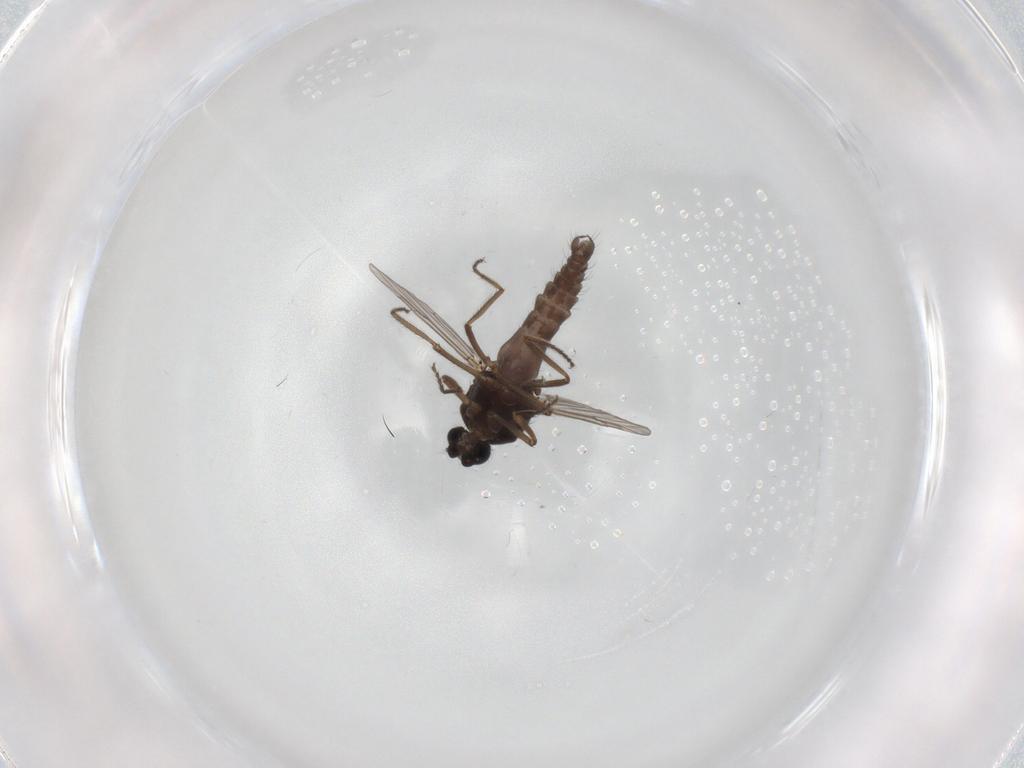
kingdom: Animalia
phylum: Arthropoda
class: Insecta
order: Diptera
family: Ceratopogonidae
